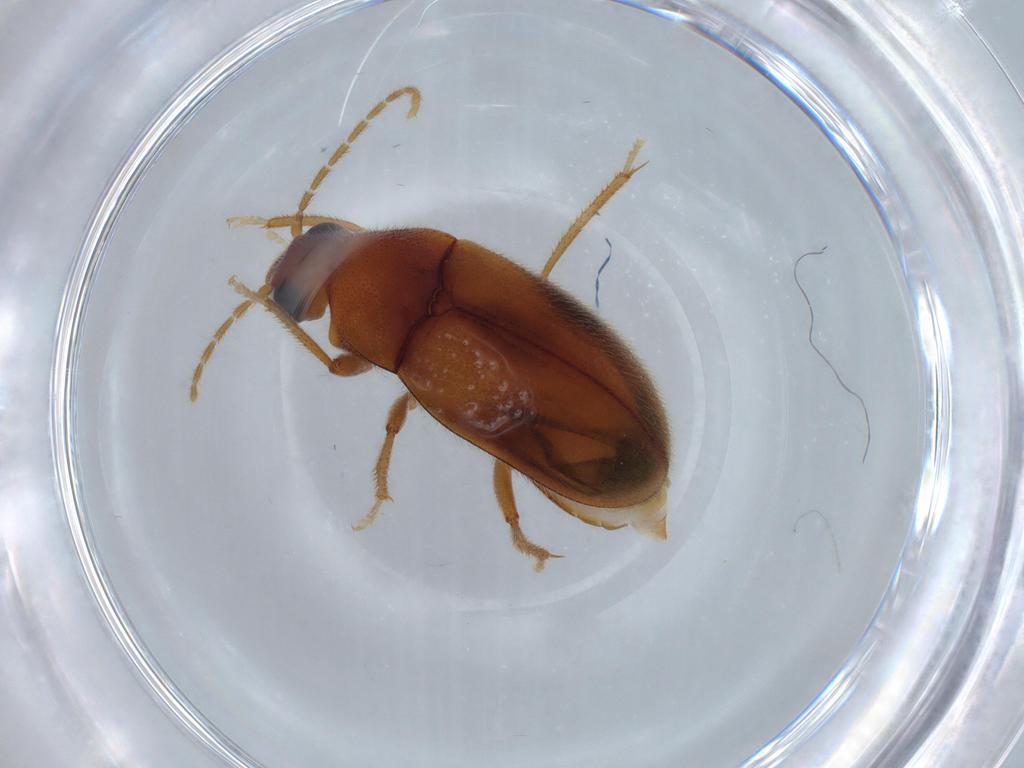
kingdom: Animalia
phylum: Arthropoda
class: Insecta
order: Coleoptera
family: Ptilodactylidae
